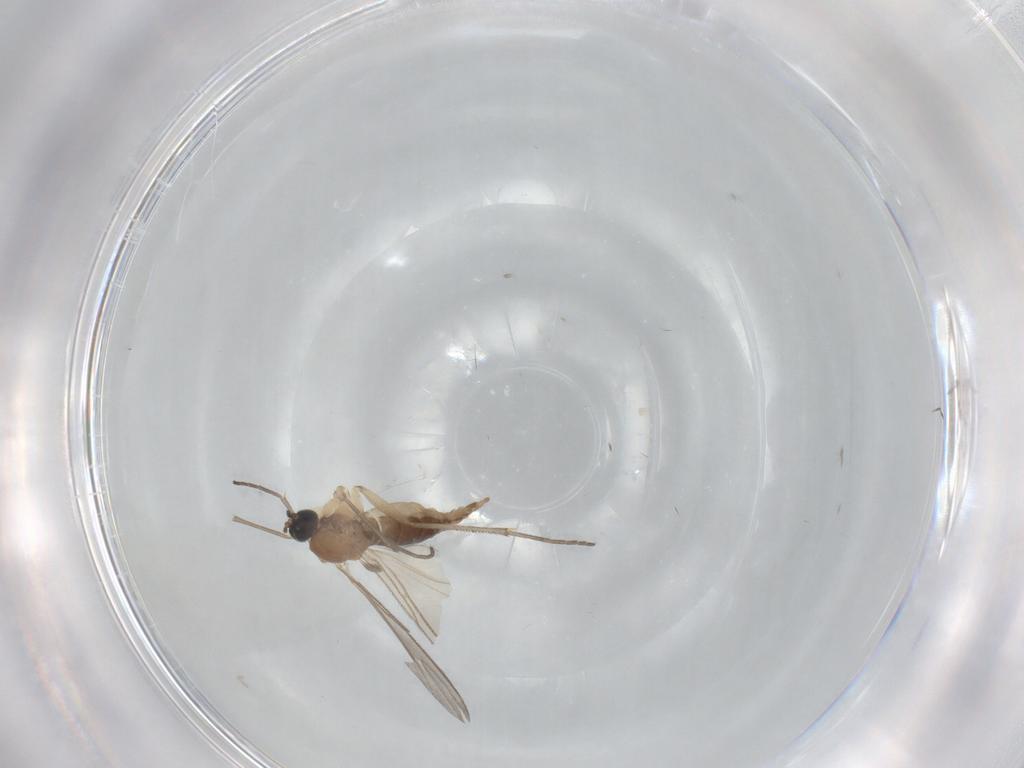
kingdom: Animalia
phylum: Arthropoda
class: Insecta
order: Diptera
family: Sciaridae
